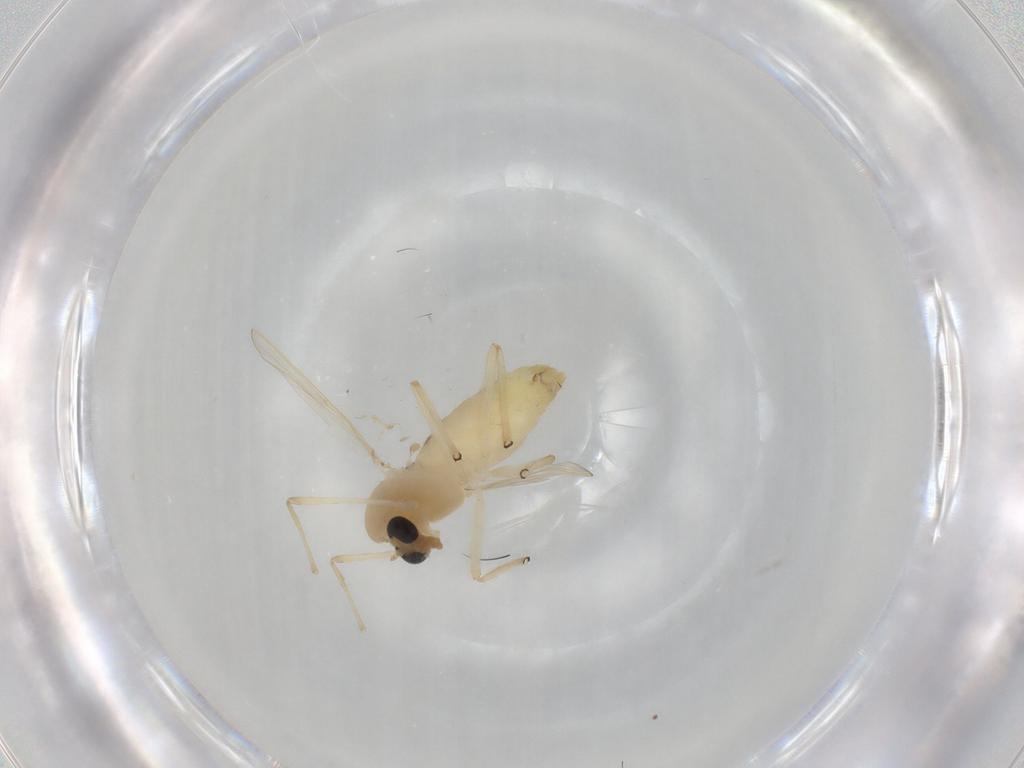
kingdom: Animalia
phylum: Arthropoda
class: Insecta
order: Diptera
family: Chironomidae
